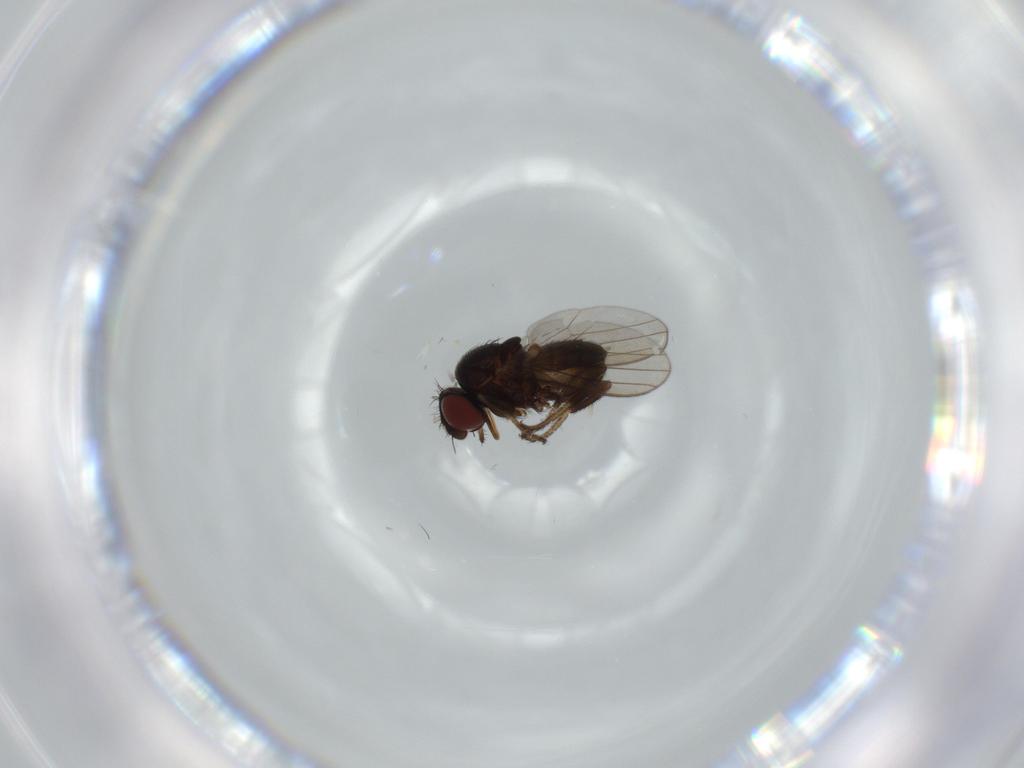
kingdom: Animalia
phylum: Arthropoda
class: Insecta
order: Diptera
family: Milichiidae
